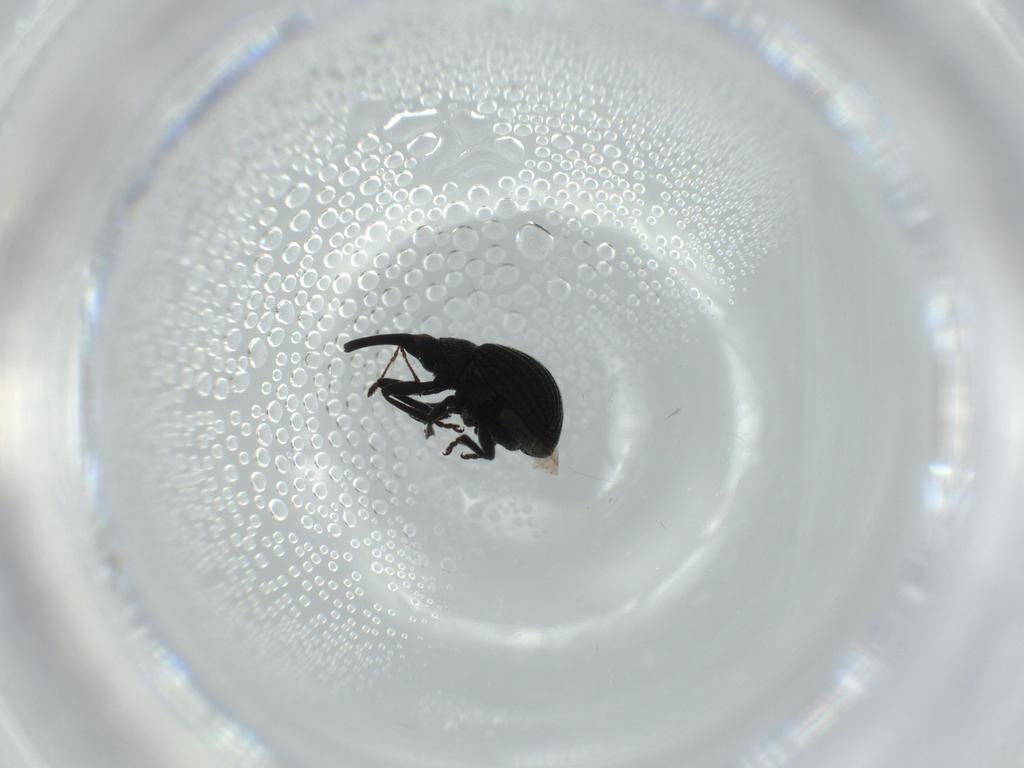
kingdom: Animalia
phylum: Arthropoda
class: Insecta
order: Coleoptera
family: Brentidae
